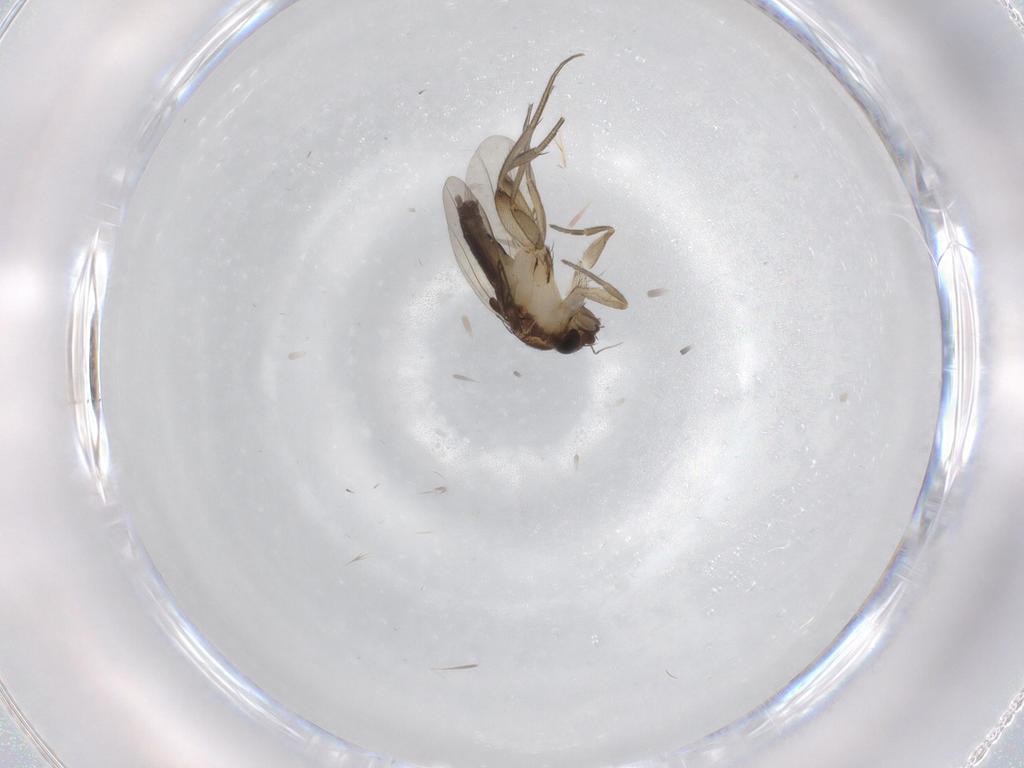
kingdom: Animalia
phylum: Arthropoda
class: Insecta
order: Diptera
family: Phoridae
